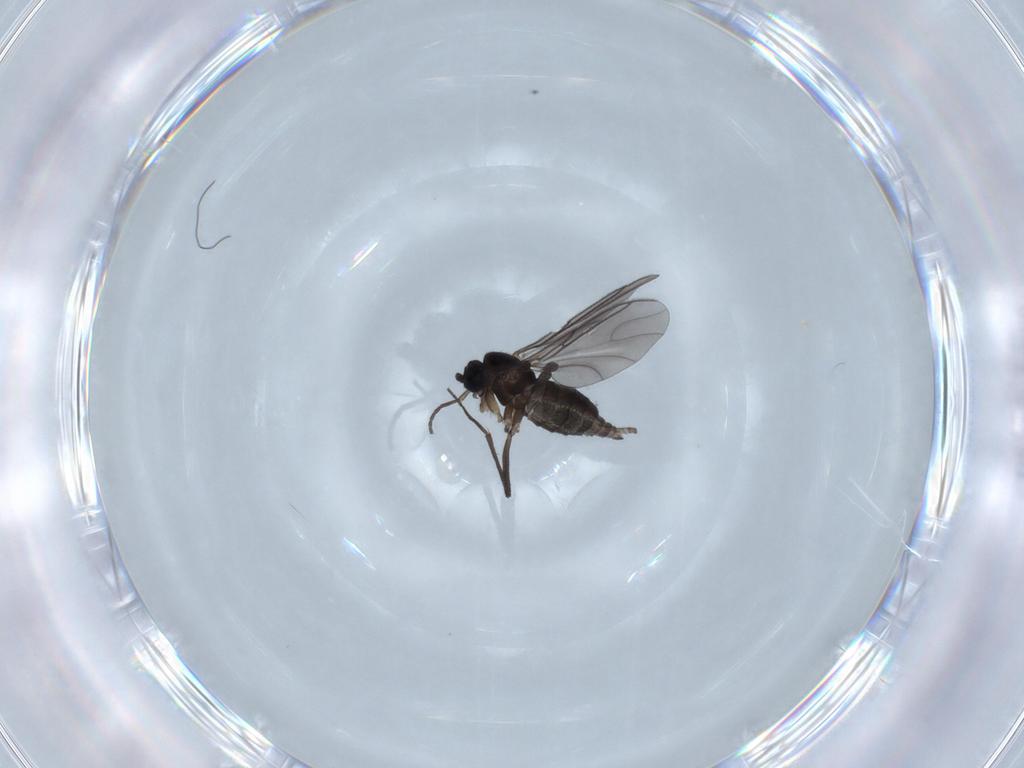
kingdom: Animalia
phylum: Arthropoda
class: Insecta
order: Diptera
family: Sciaridae
